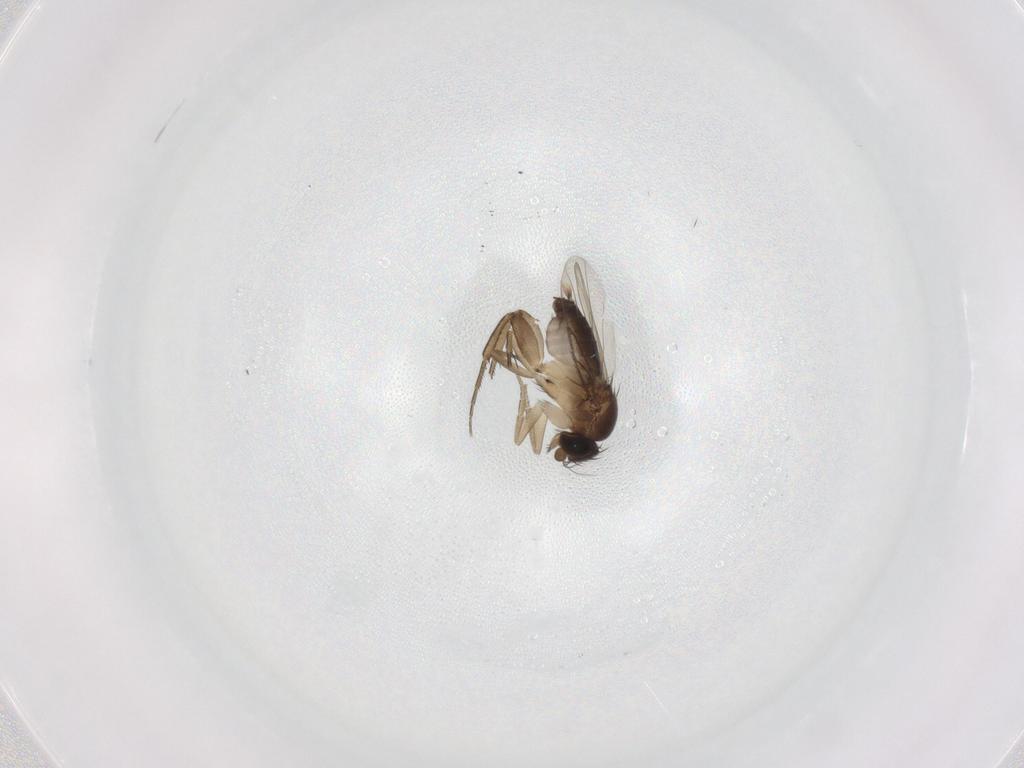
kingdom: Animalia
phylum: Arthropoda
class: Insecta
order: Diptera
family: Phoridae
